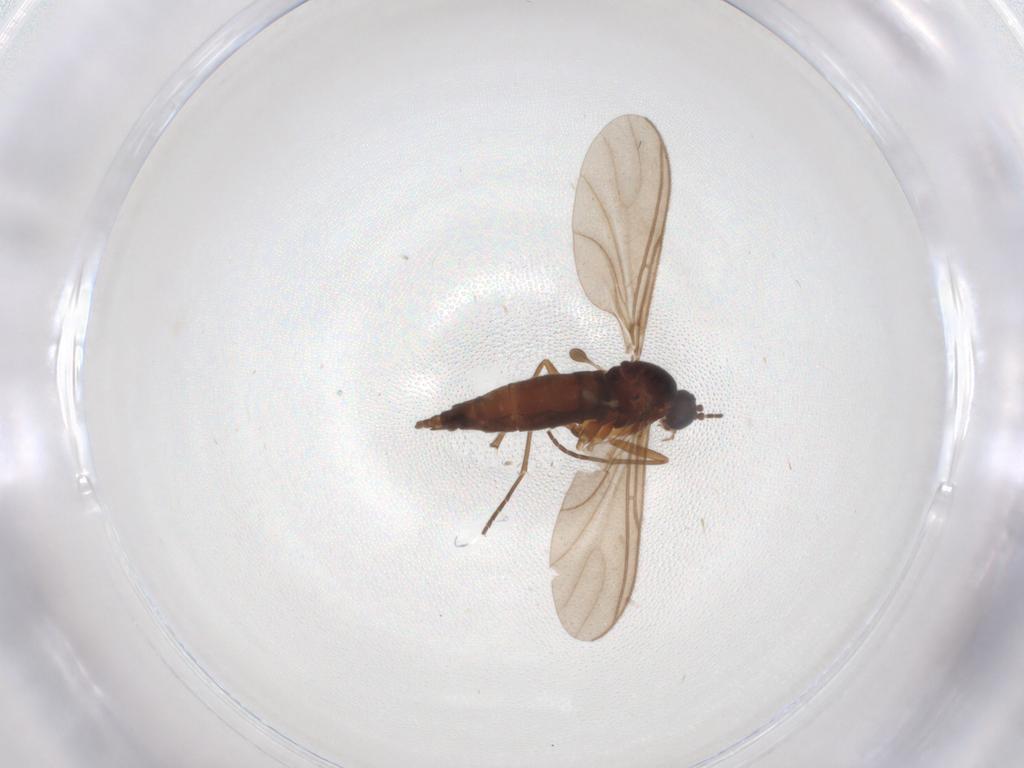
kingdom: Animalia
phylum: Arthropoda
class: Insecta
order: Diptera
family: Sciaridae
